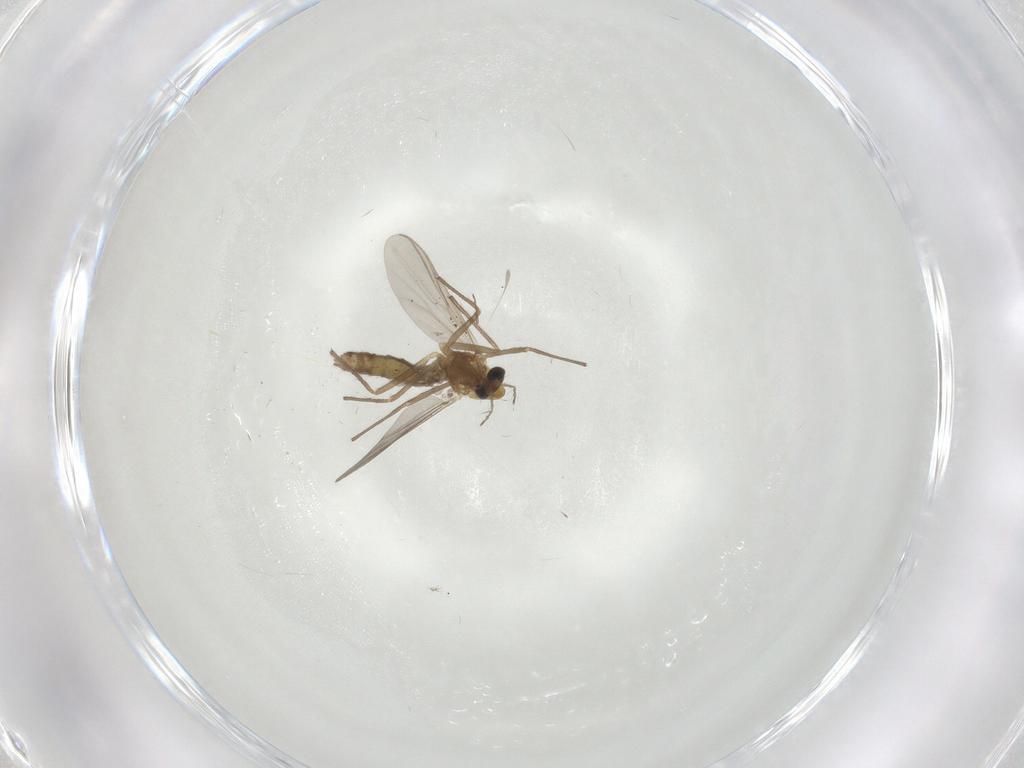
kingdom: Animalia
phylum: Arthropoda
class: Insecta
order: Diptera
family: Chironomidae
